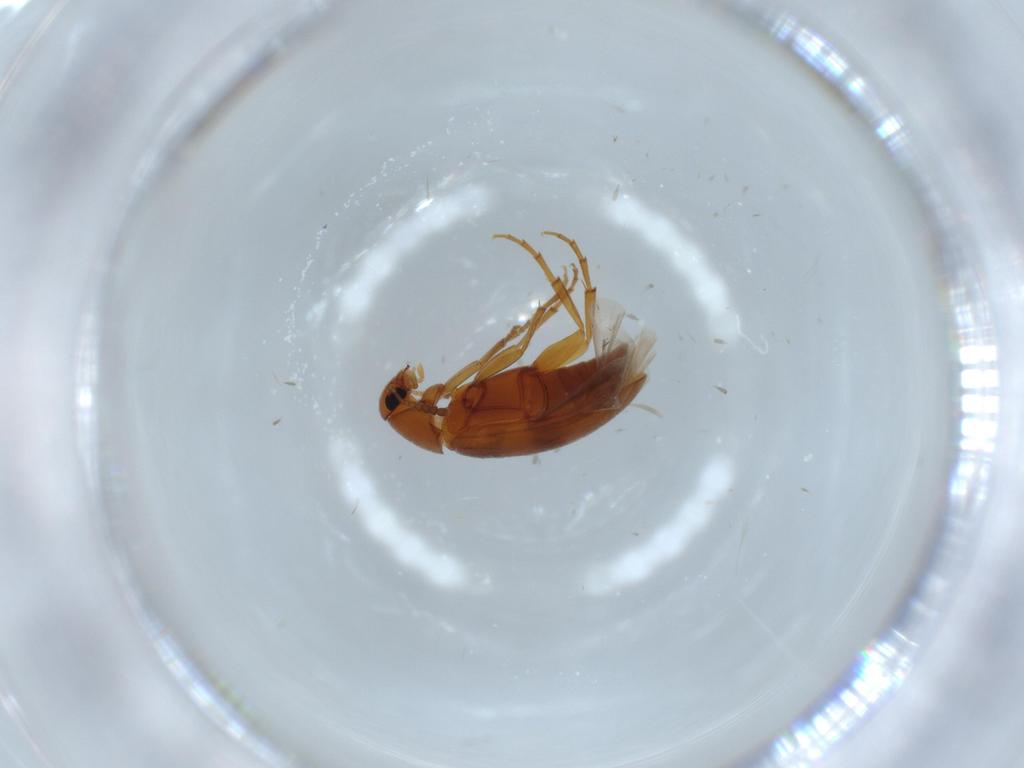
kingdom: Animalia
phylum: Arthropoda
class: Insecta
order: Coleoptera
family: Scraptiidae
